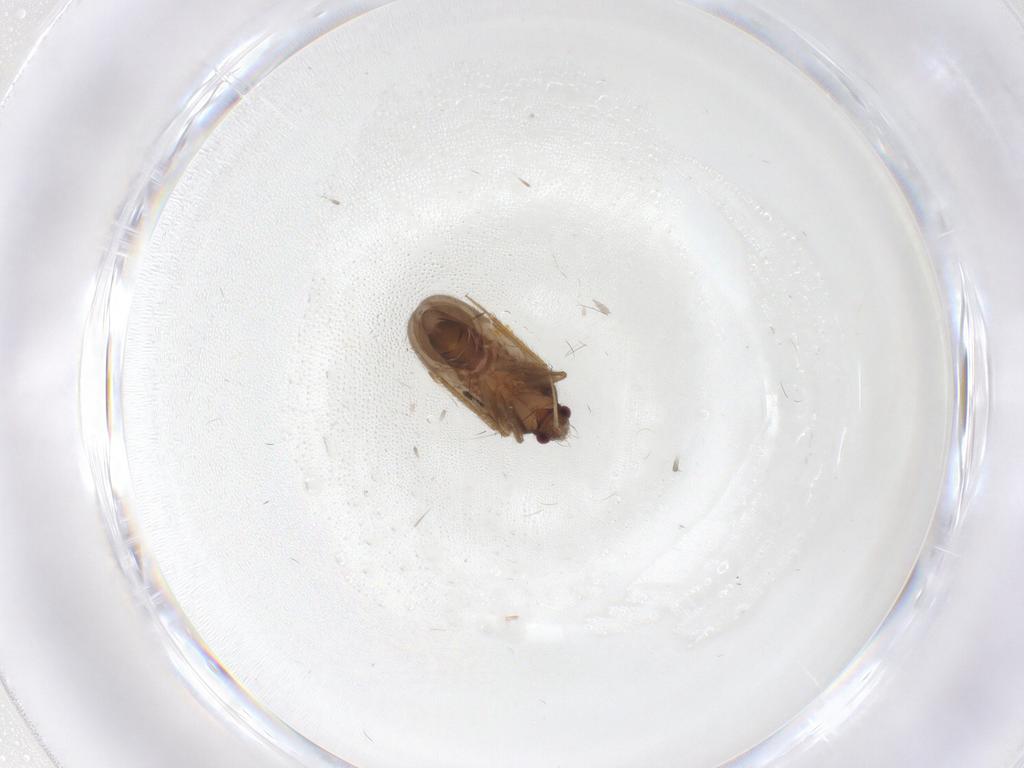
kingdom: Animalia
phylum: Arthropoda
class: Insecta
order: Hemiptera
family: Ceratocombidae
